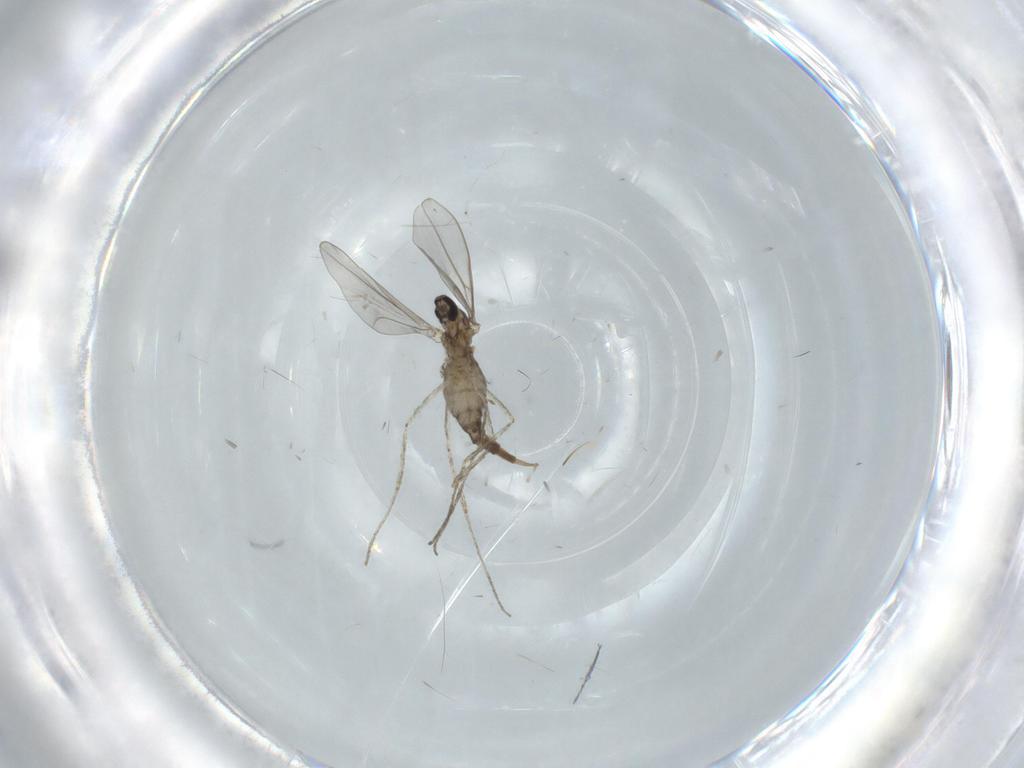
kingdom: Animalia
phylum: Arthropoda
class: Insecta
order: Diptera
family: Cecidomyiidae
